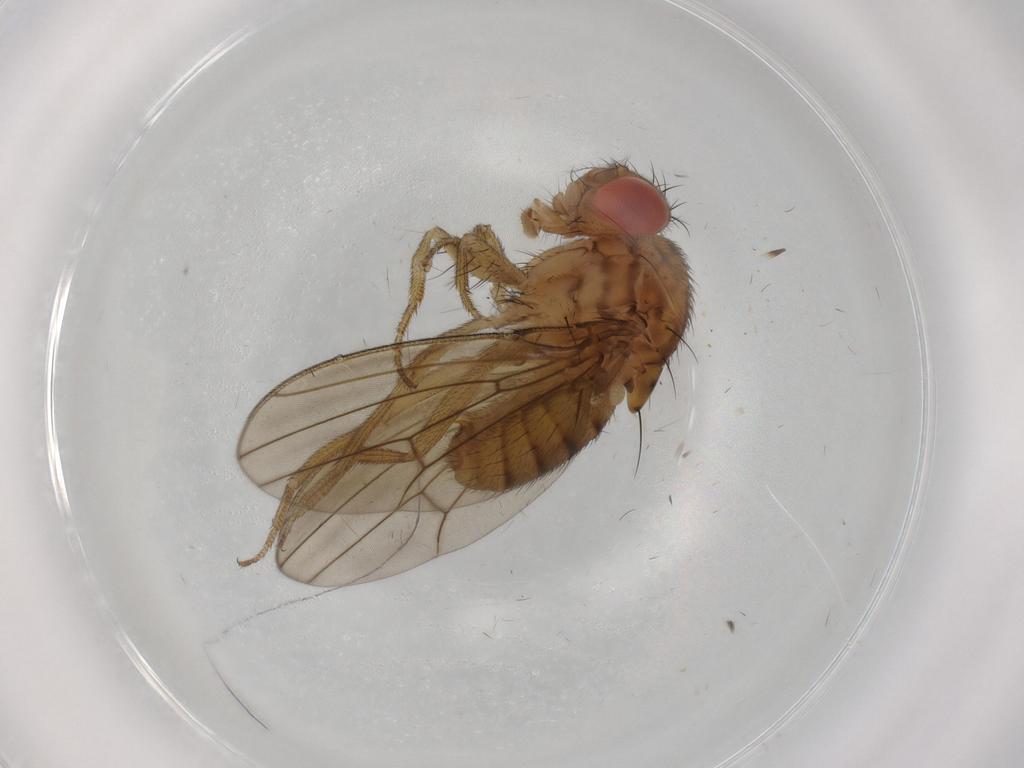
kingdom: Animalia
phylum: Arthropoda
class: Insecta
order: Diptera
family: Drosophilidae
